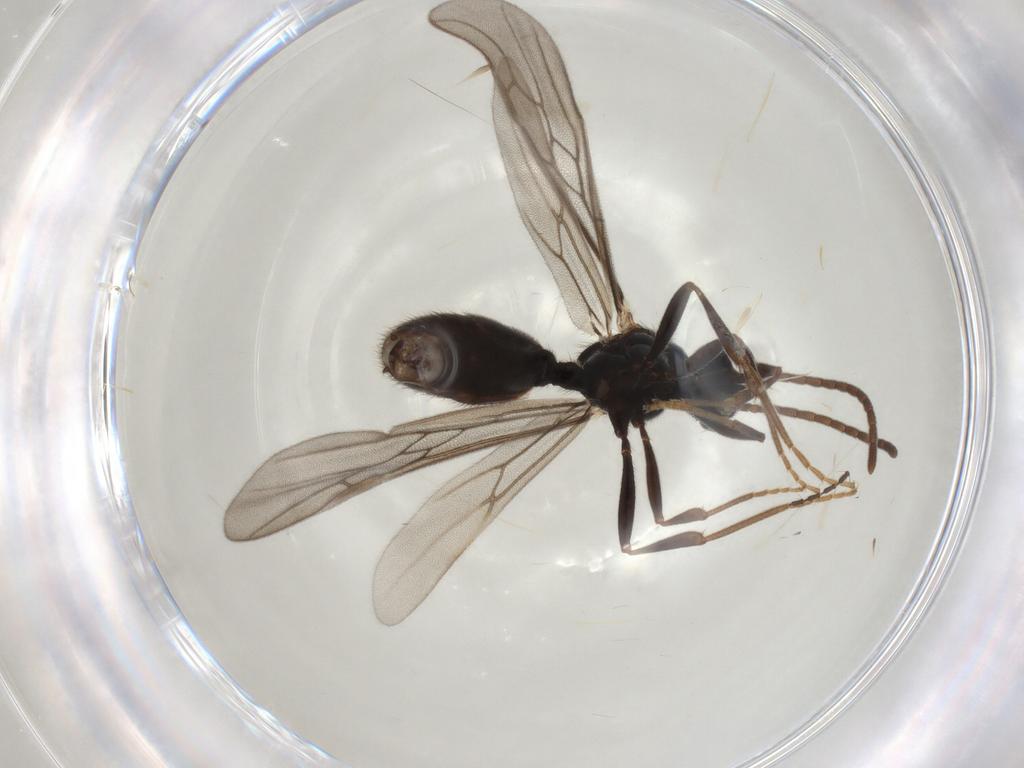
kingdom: Animalia
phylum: Arthropoda
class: Insecta
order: Hymenoptera
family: Formicidae
